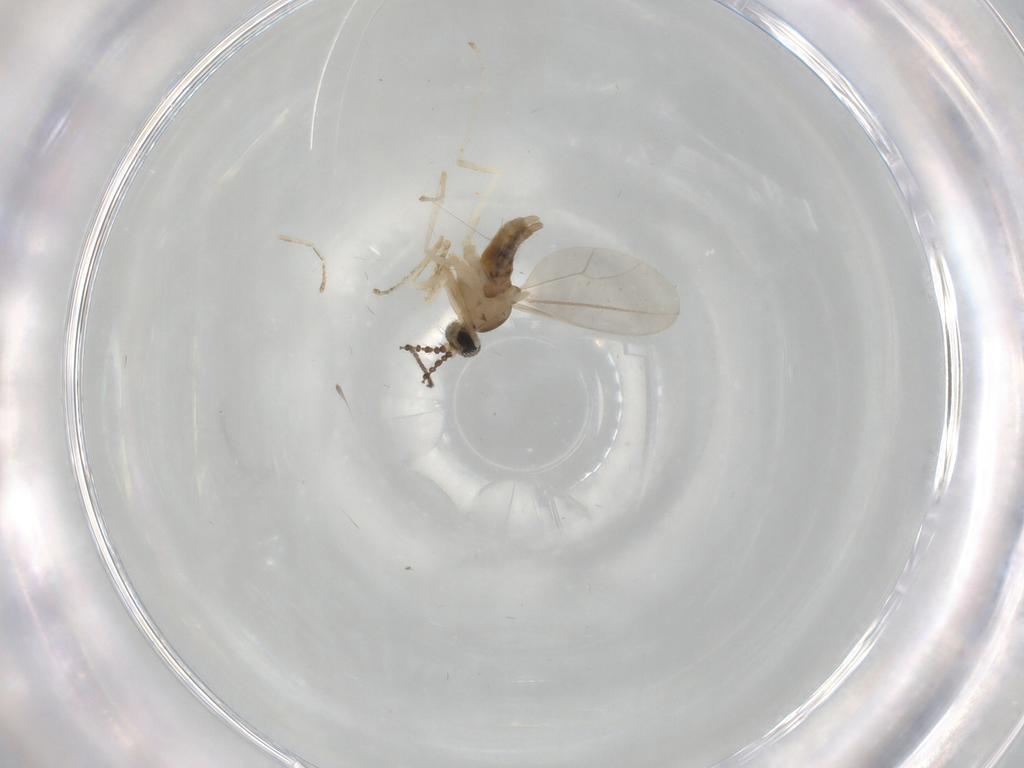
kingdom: Animalia
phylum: Arthropoda
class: Insecta
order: Diptera
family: Sciaridae
